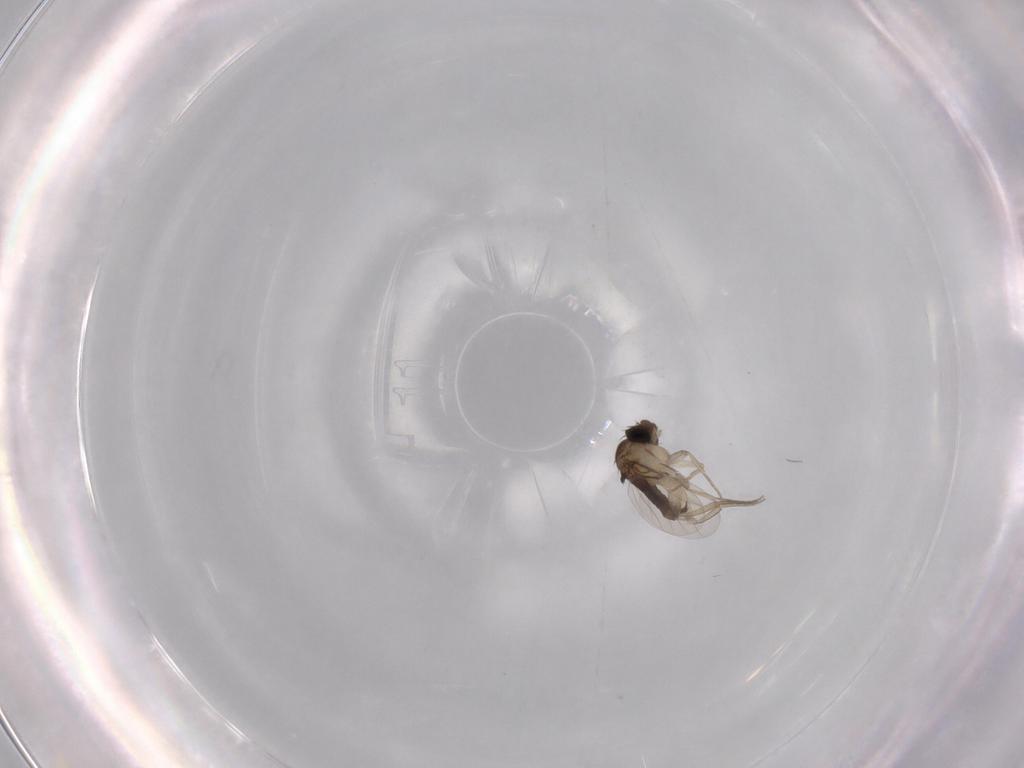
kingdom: Animalia
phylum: Arthropoda
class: Insecta
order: Diptera
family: Phoridae
